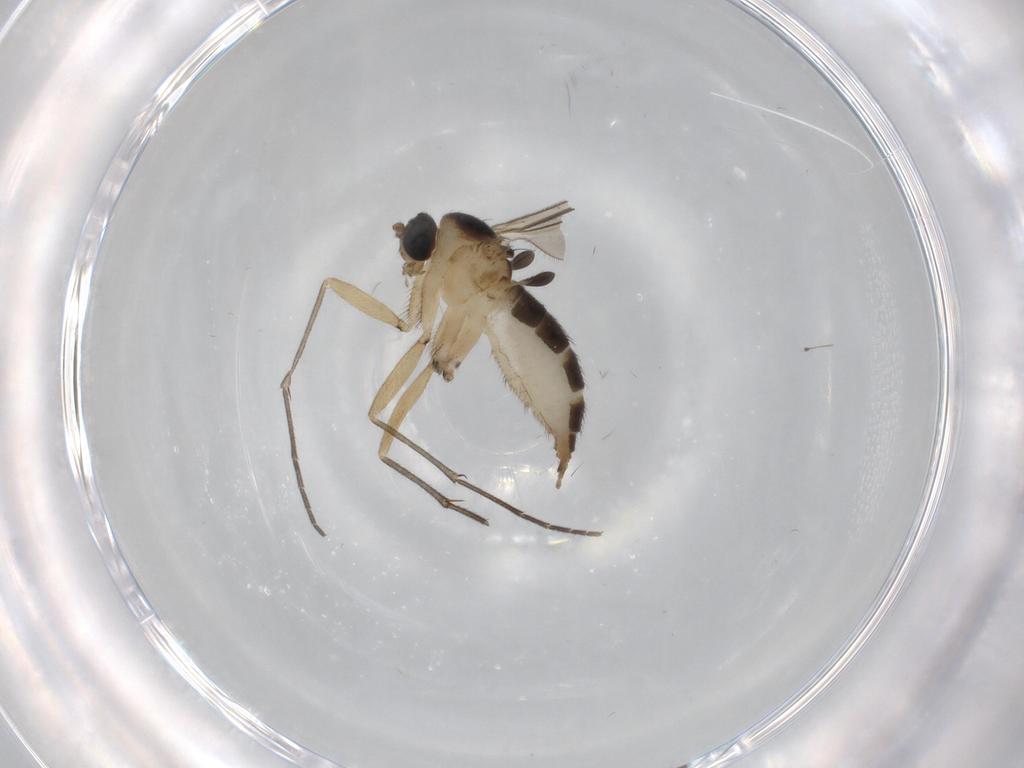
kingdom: Animalia
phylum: Arthropoda
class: Insecta
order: Diptera
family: Sciaridae
